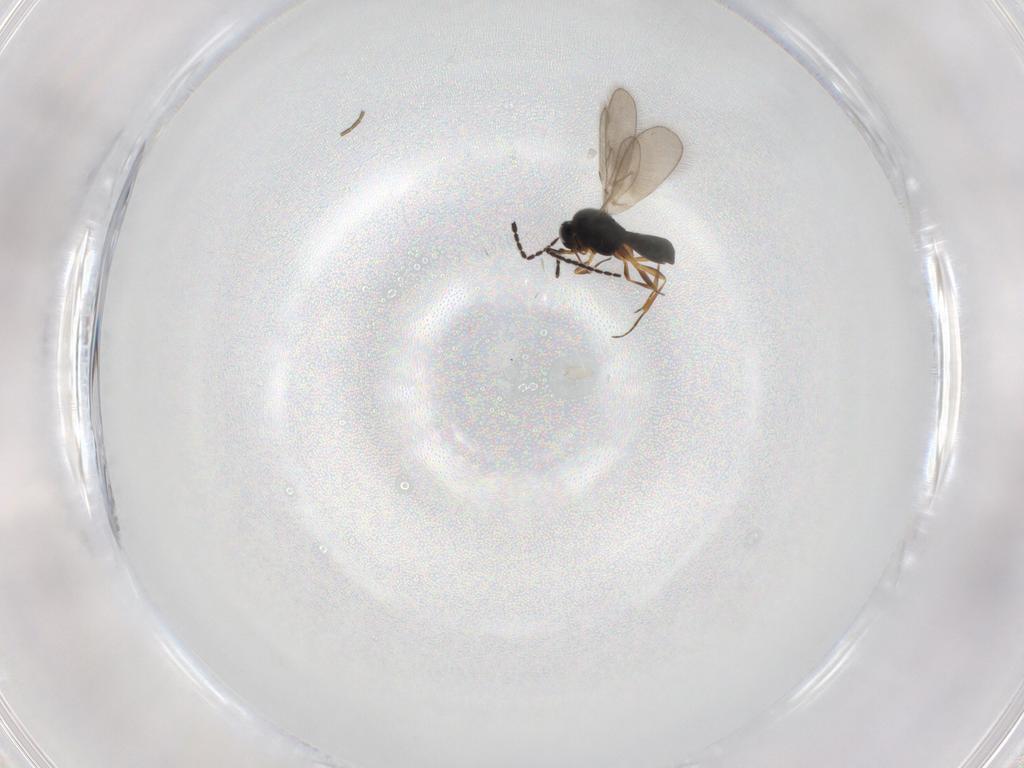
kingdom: Animalia
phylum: Arthropoda
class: Insecta
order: Hymenoptera
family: Scelionidae
